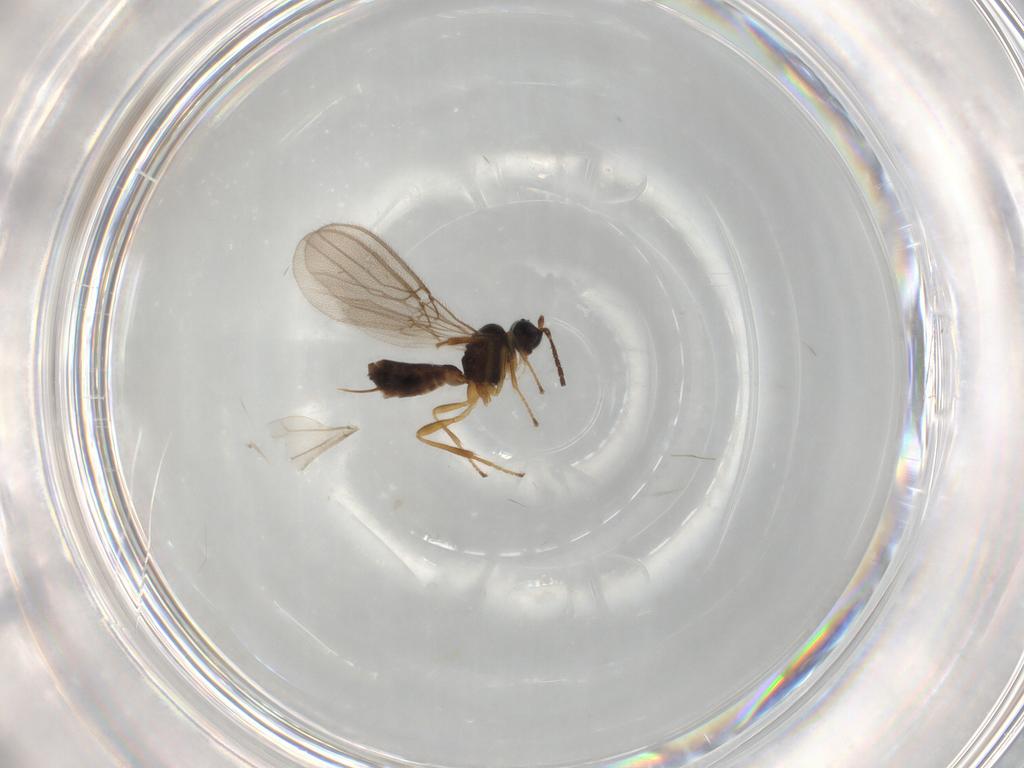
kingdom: Animalia
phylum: Arthropoda
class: Insecta
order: Hymenoptera
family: Braconidae
